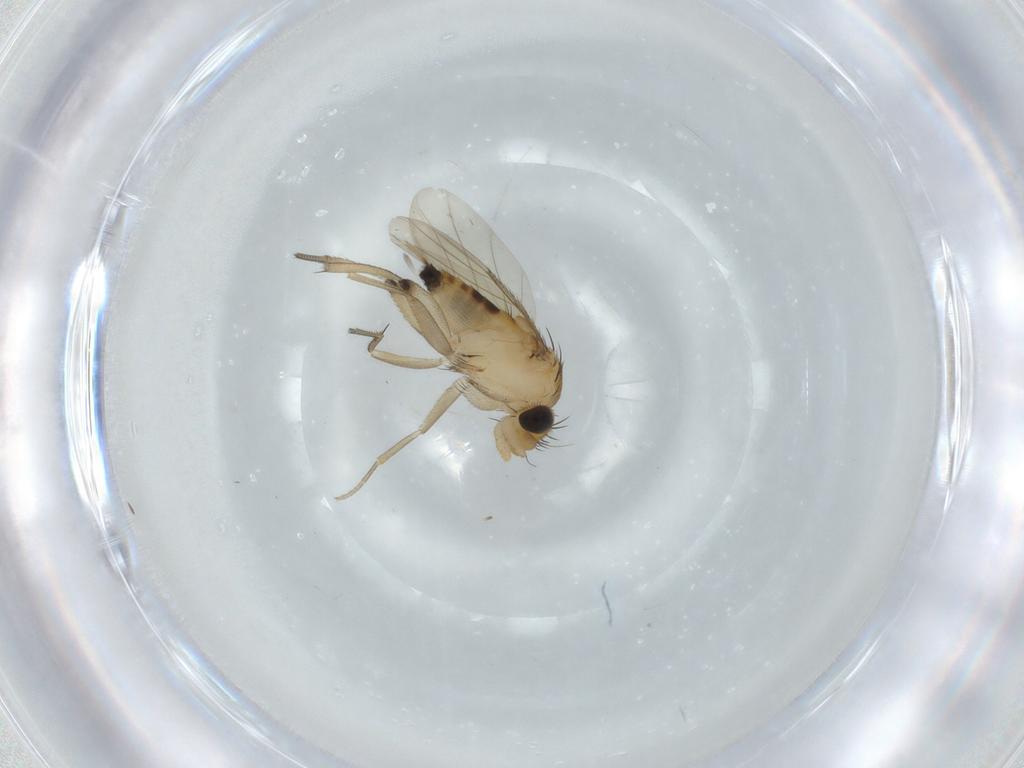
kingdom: Animalia
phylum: Arthropoda
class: Insecta
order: Diptera
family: Phoridae
